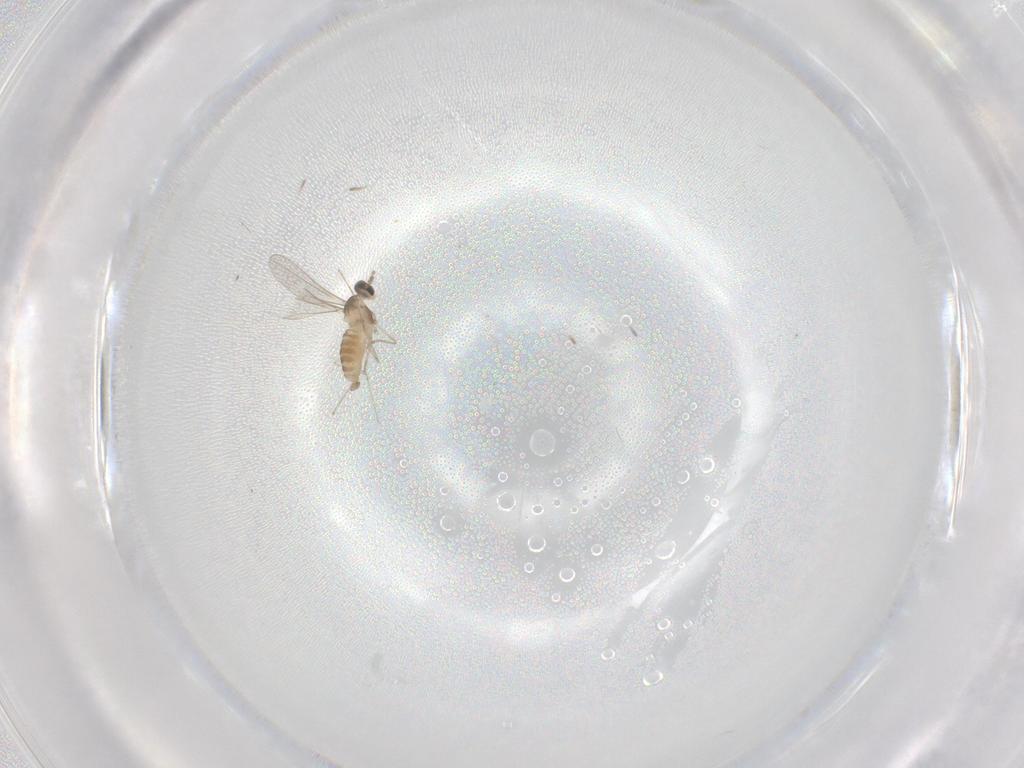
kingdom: Animalia
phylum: Arthropoda
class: Insecta
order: Diptera
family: Cecidomyiidae
